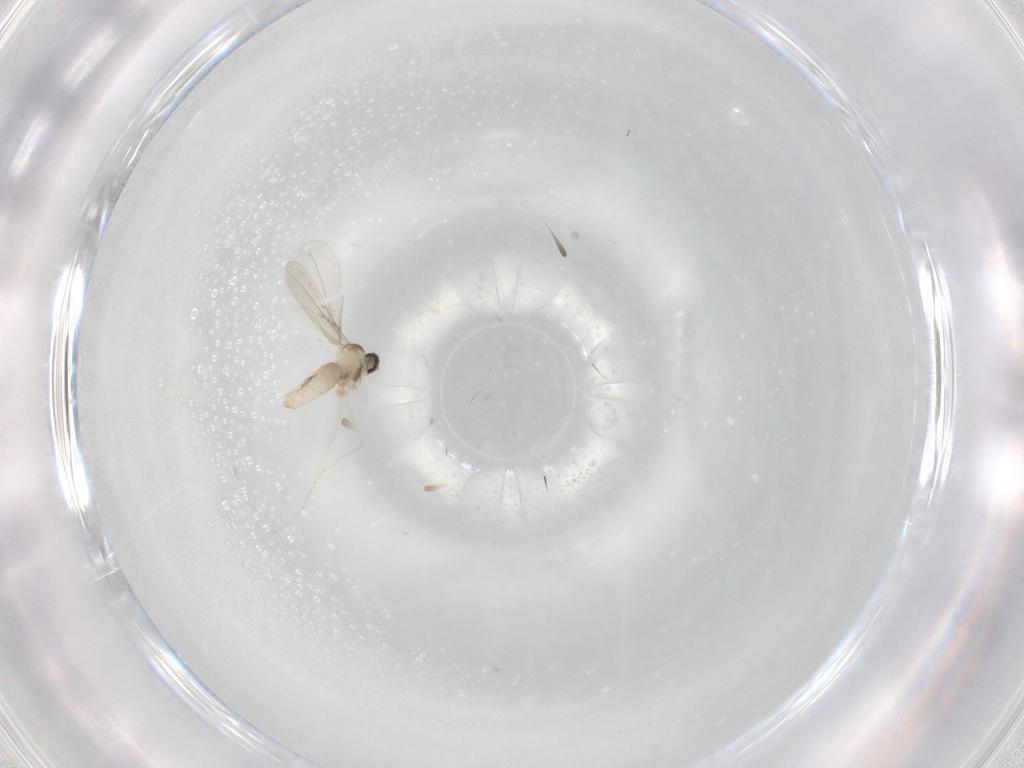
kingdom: Animalia
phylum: Arthropoda
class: Insecta
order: Diptera
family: Cecidomyiidae
